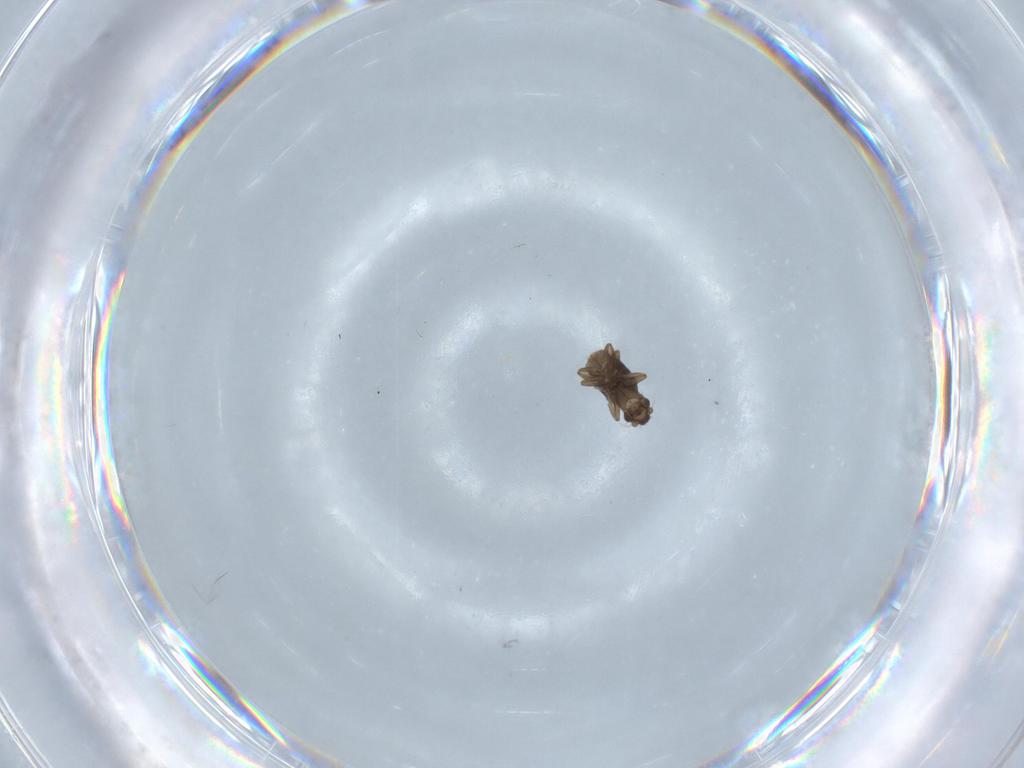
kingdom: Animalia
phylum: Arthropoda
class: Insecta
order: Diptera
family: Phoridae
